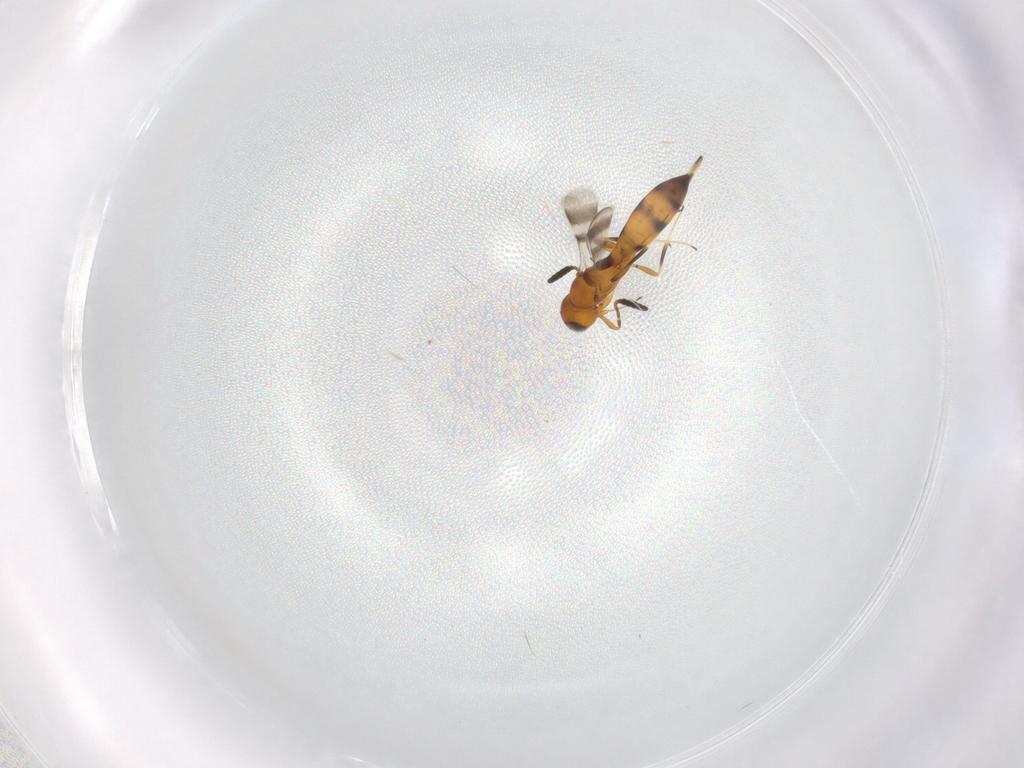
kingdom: Animalia
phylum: Arthropoda
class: Insecta
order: Hymenoptera
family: Scelionidae
